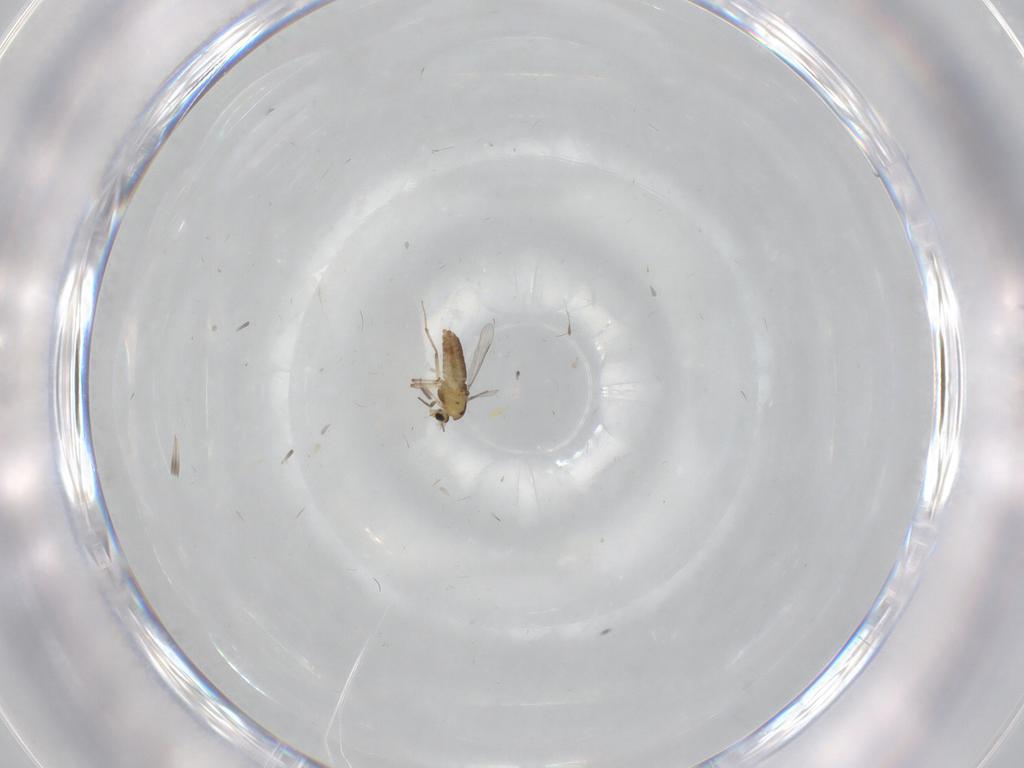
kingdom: Animalia
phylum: Arthropoda
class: Insecta
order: Diptera
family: Chironomidae
